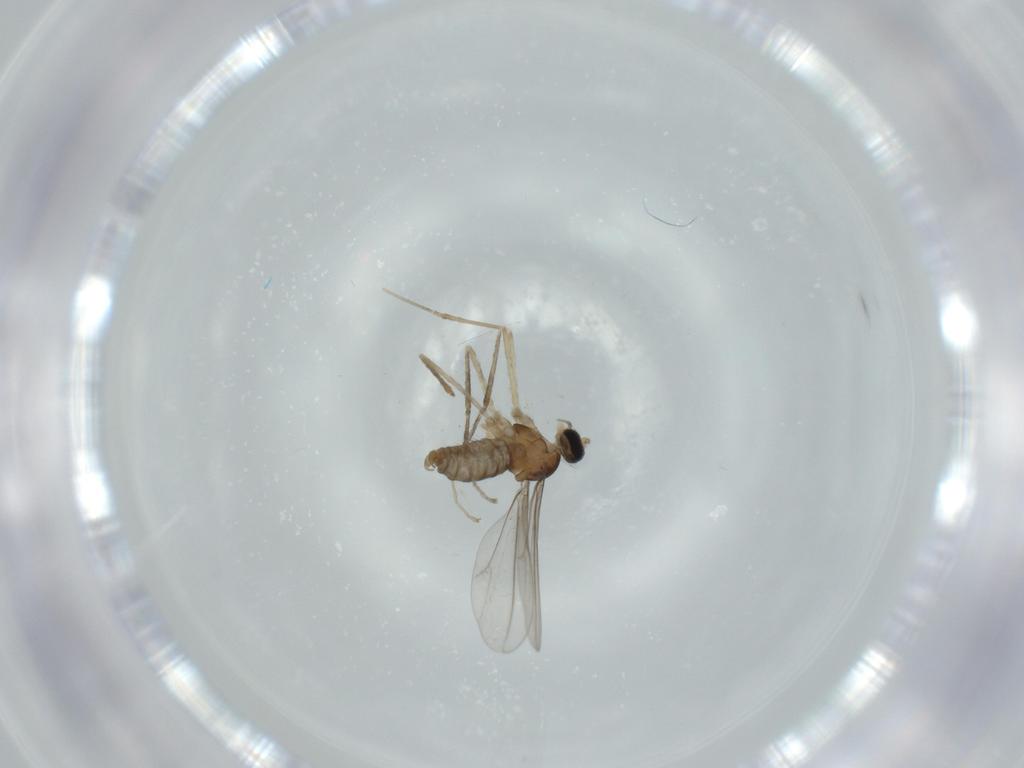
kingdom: Animalia
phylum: Arthropoda
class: Insecta
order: Diptera
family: Cecidomyiidae
